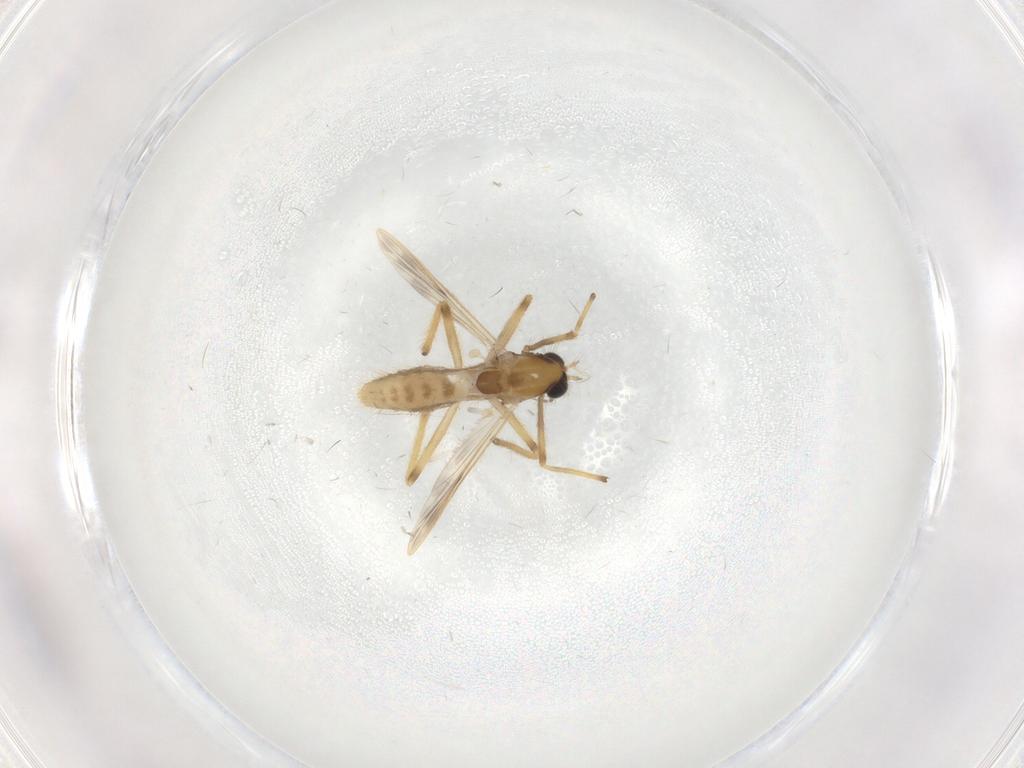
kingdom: Animalia
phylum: Arthropoda
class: Insecta
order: Diptera
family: Chironomidae
